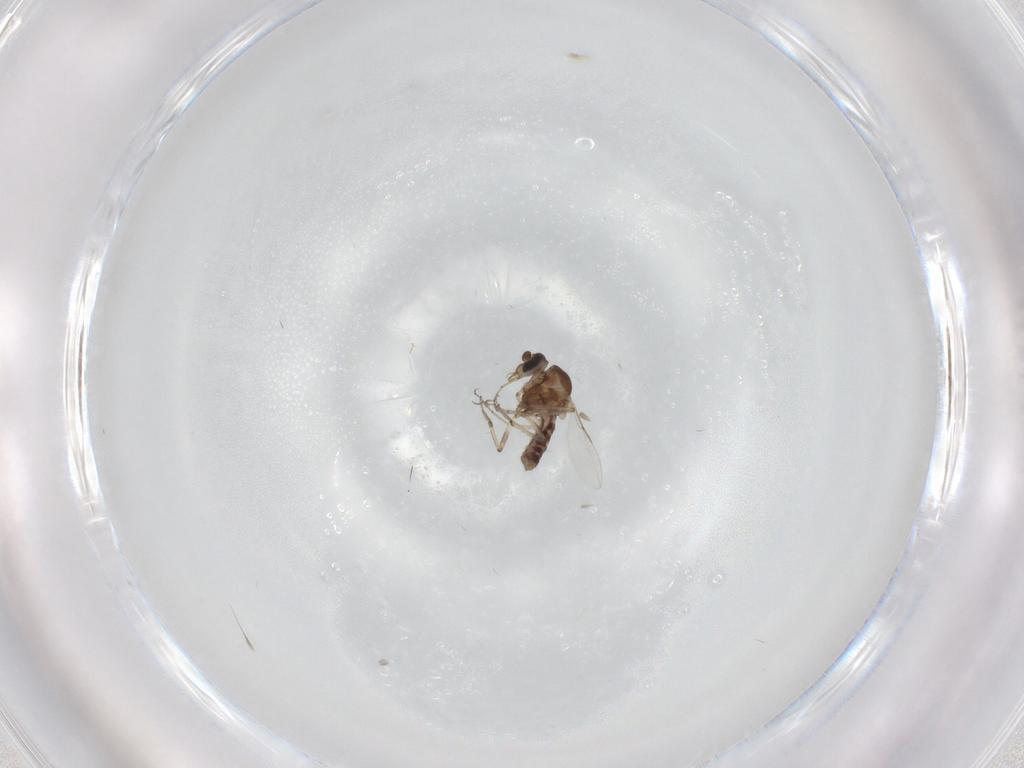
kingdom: Animalia
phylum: Arthropoda
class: Insecta
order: Diptera
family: Ceratopogonidae
